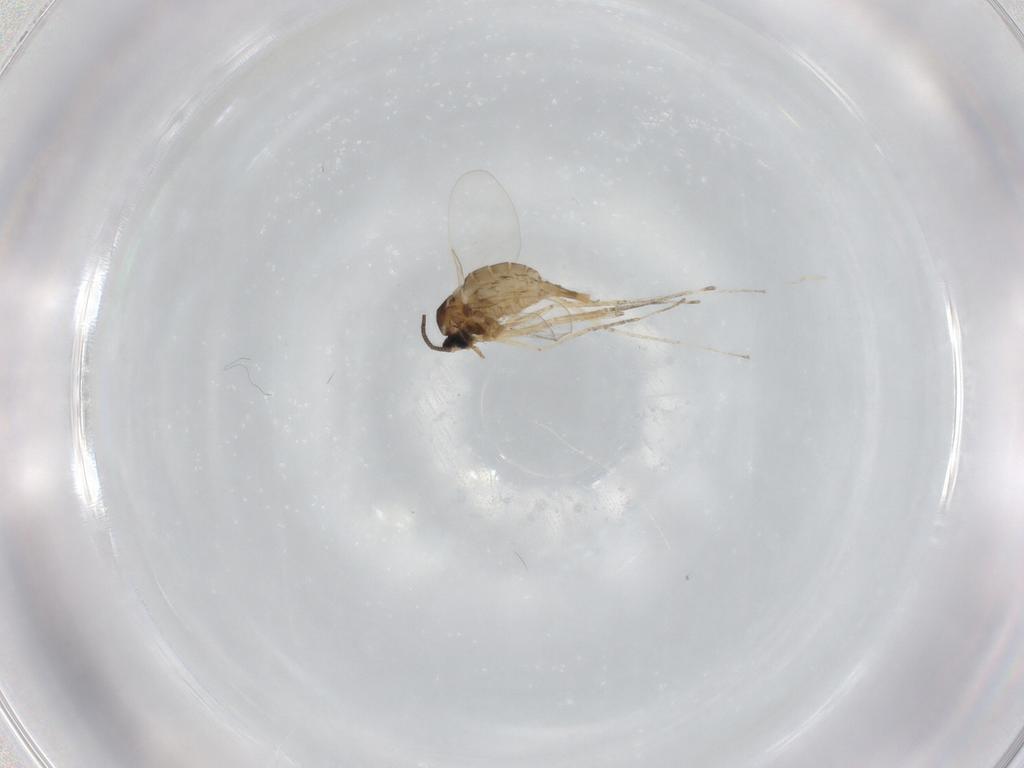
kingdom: Animalia
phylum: Arthropoda
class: Insecta
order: Diptera
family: Cecidomyiidae
